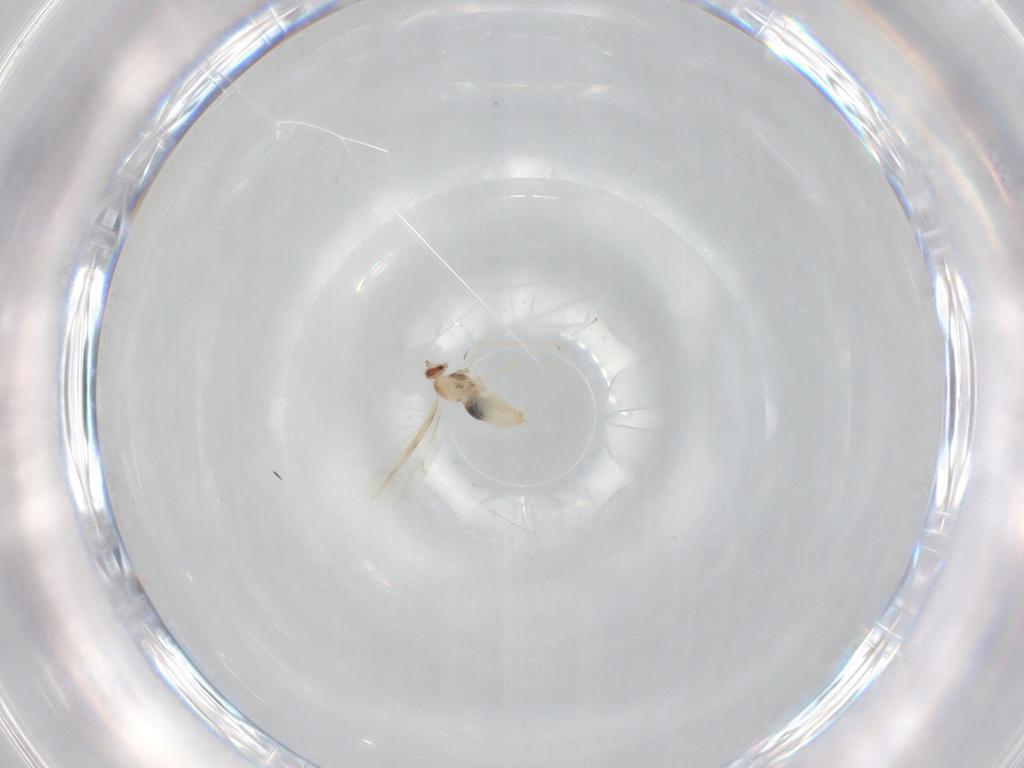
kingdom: Animalia
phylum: Arthropoda
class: Insecta
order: Diptera
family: Cecidomyiidae
